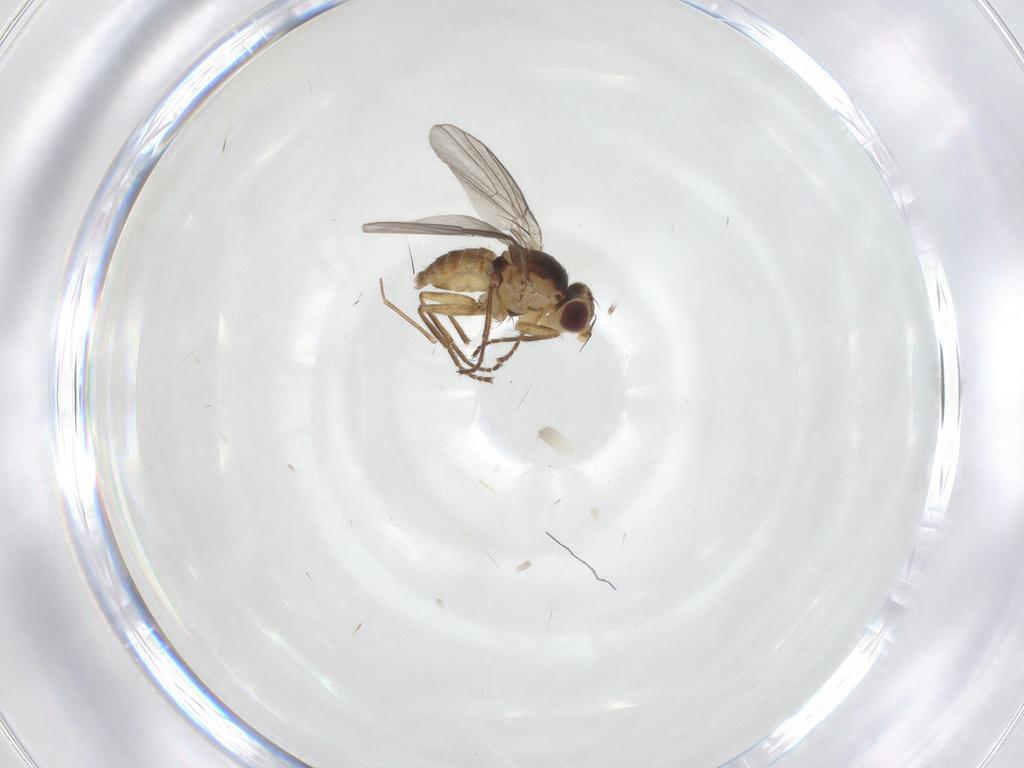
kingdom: Animalia
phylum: Arthropoda
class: Insecta
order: Diptera
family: Agromyzidae
